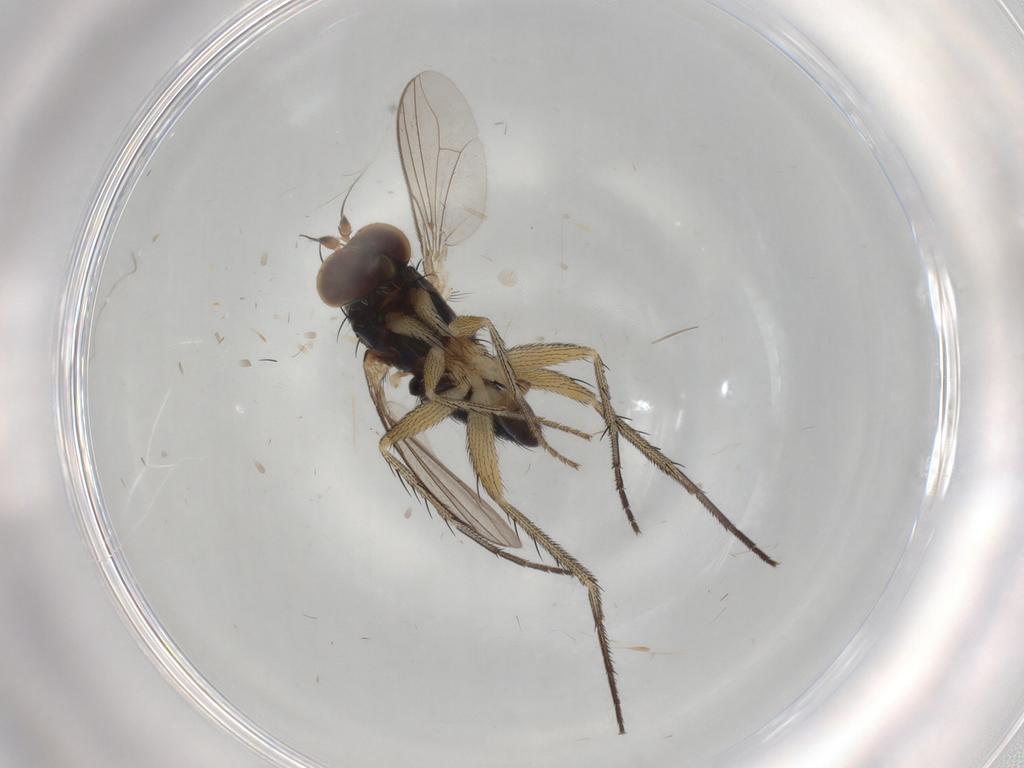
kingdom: Animalia
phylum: Arthropoda
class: Insecta
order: Diptera
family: Dolichopodidae
